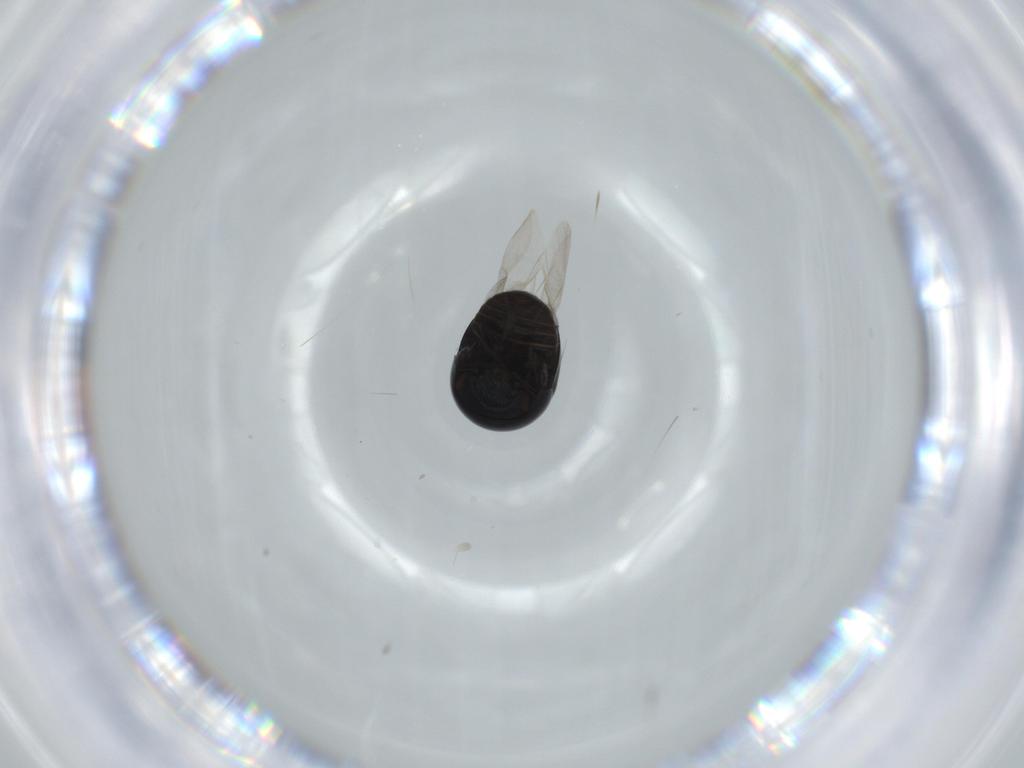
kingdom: Animalia
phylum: Arthropoda
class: Insecta
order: Coleoptera
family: Cybocephalidae
